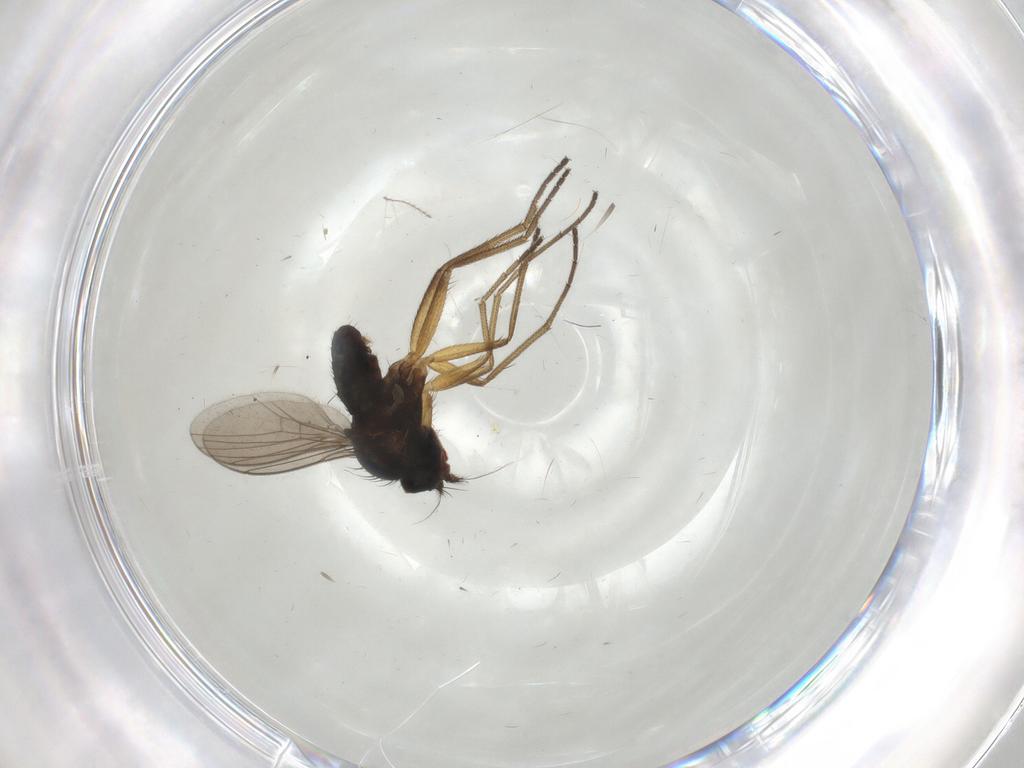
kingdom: Animalia
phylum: Arthropoda
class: Insecta
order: Diptera
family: Dolichopodidae
